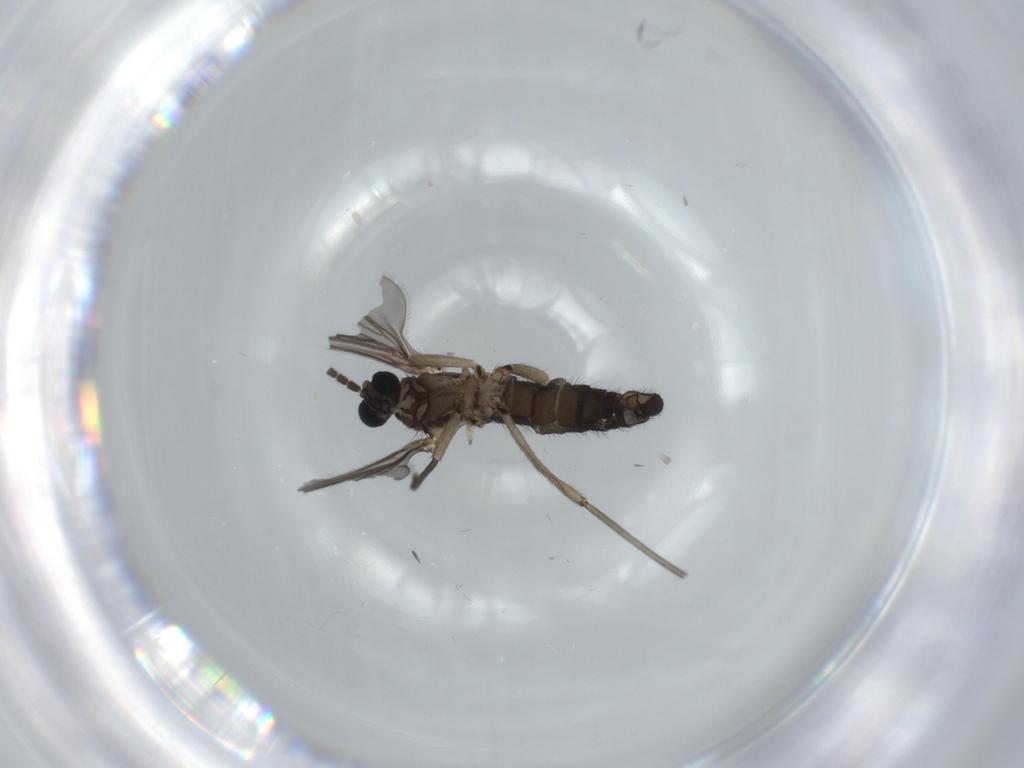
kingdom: Animalia
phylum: Arthropoda
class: Insecta
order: Diptera
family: Sciaridae
